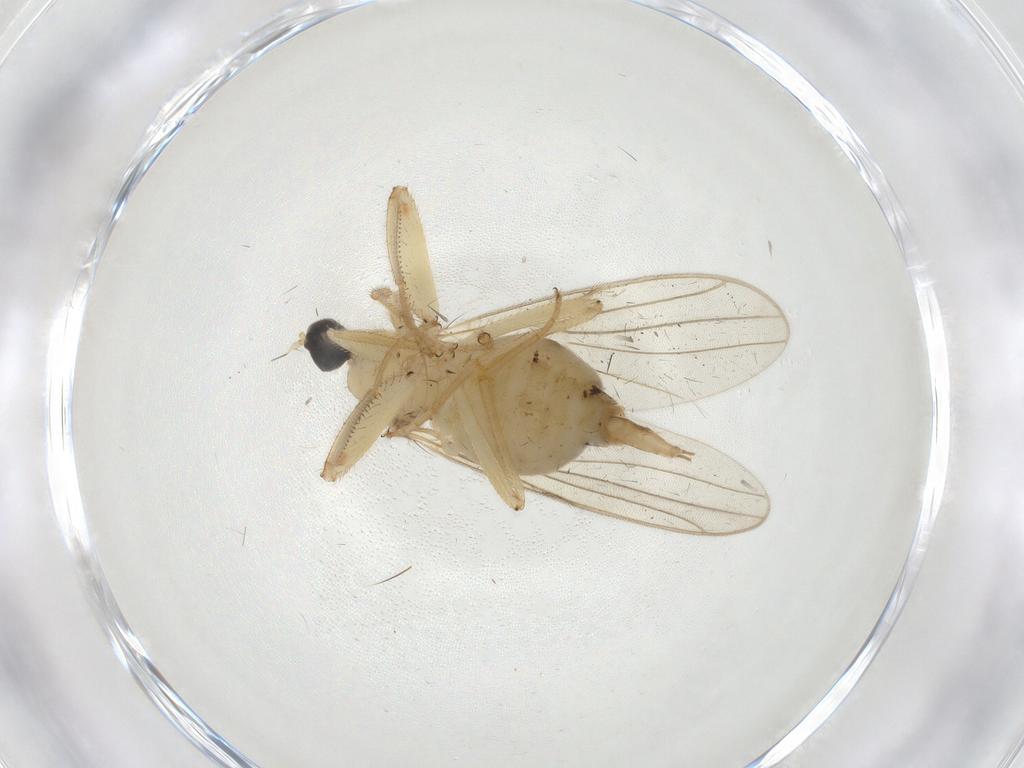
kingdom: Animalia
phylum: Arthropoda
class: Insecta
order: Diptera
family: Hybotidae
